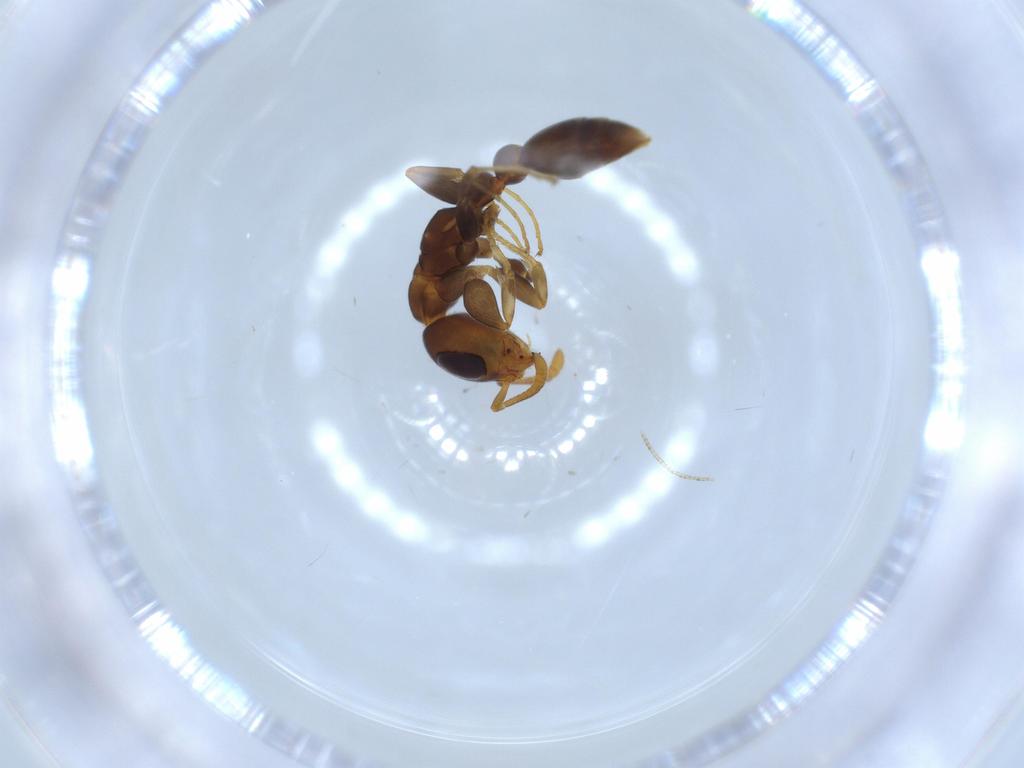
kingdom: Animalia
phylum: Arthropoda
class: Insecta
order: Hymenoptera
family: Formicidae
